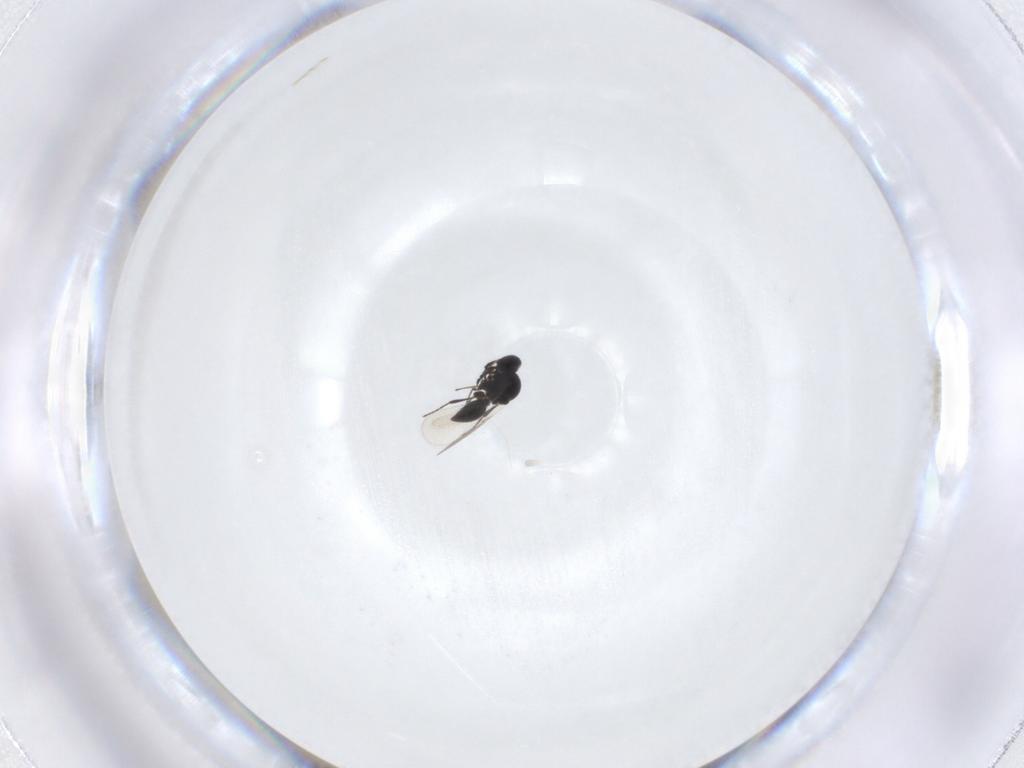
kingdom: Animalia
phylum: Arthropoda
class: Insecta
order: Hymenoptera
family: Platygastridae
